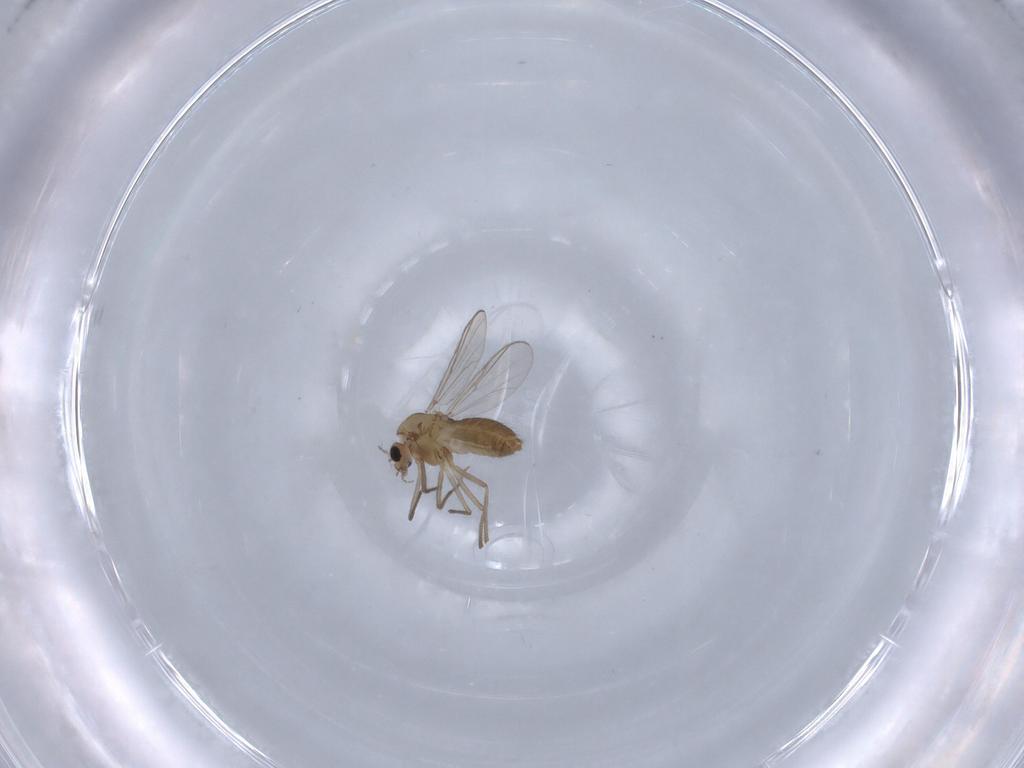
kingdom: Animalia
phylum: Arthropoda
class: Insecta
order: Diptera
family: Chironomidae
